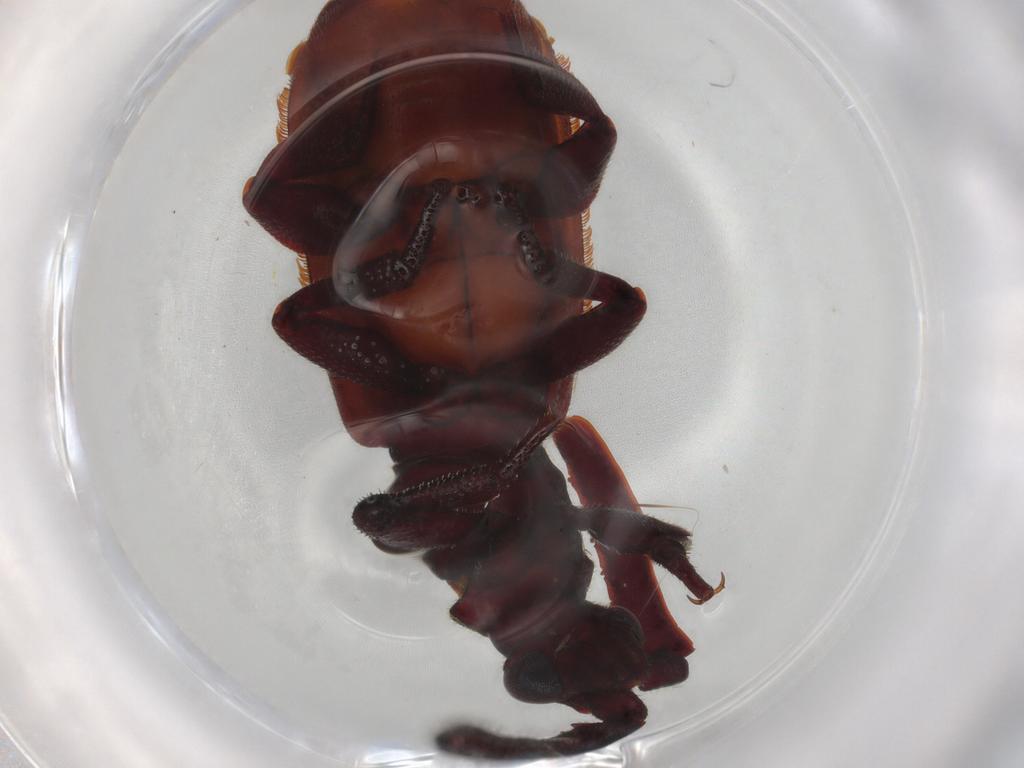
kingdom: Animalia
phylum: Arthropoda
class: Insecta
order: Coleoptera
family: Carabidae
